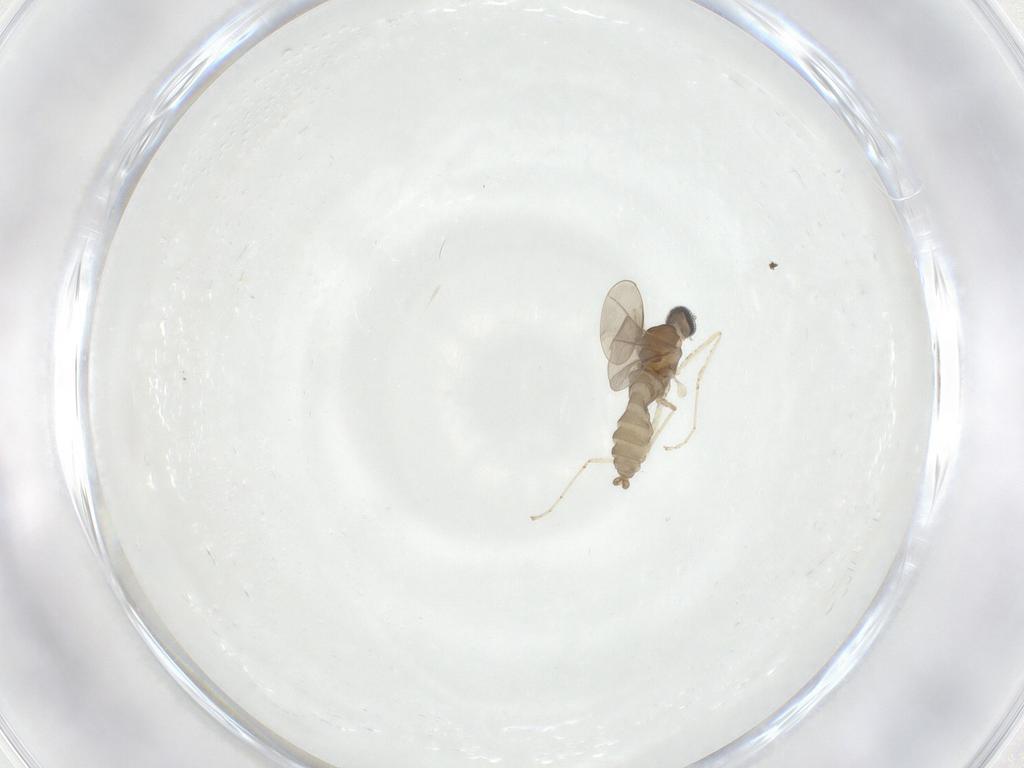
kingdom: Animalia
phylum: Arthropoda
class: Insecta
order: Diptera
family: Cecidomyiidae
